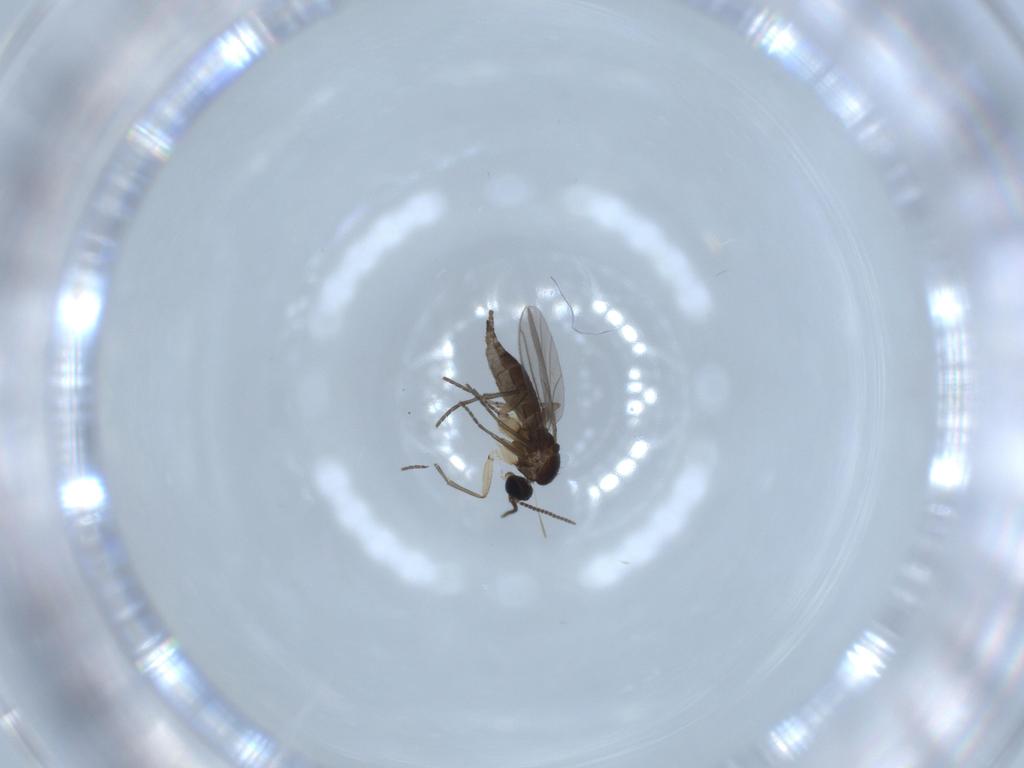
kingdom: Animalia
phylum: Arthropoda
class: Insecta
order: Diptera
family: Sciaridae
